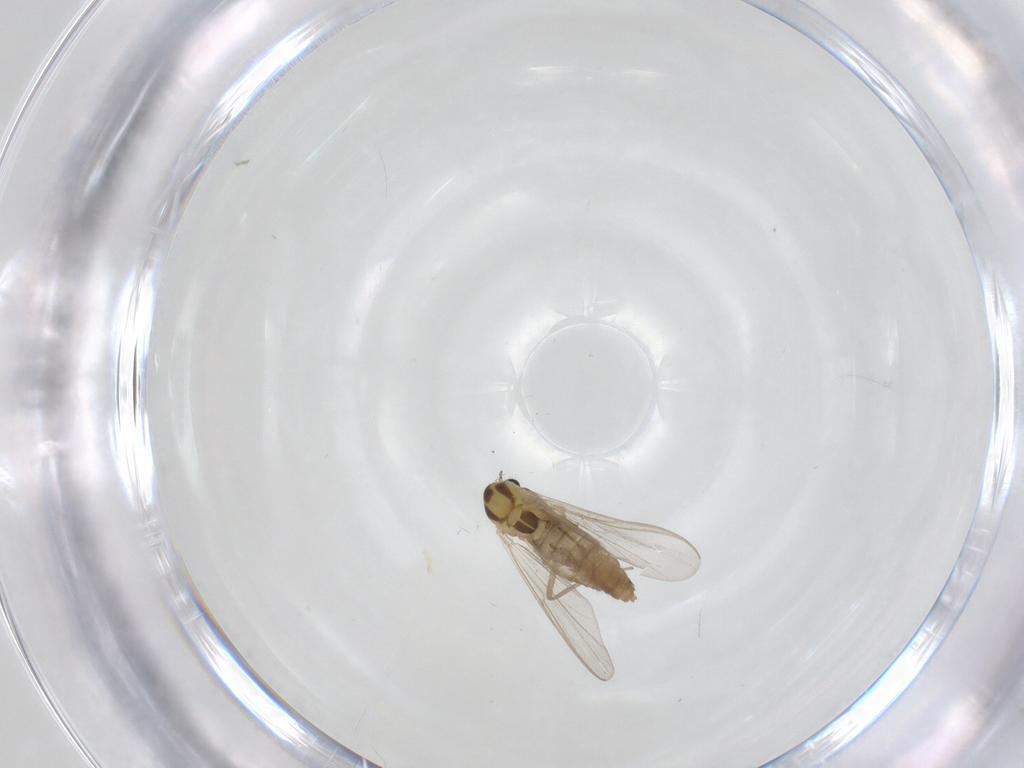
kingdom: Animalia
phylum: Arthropoda
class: Insecta
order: Diptera
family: Chironomidae
